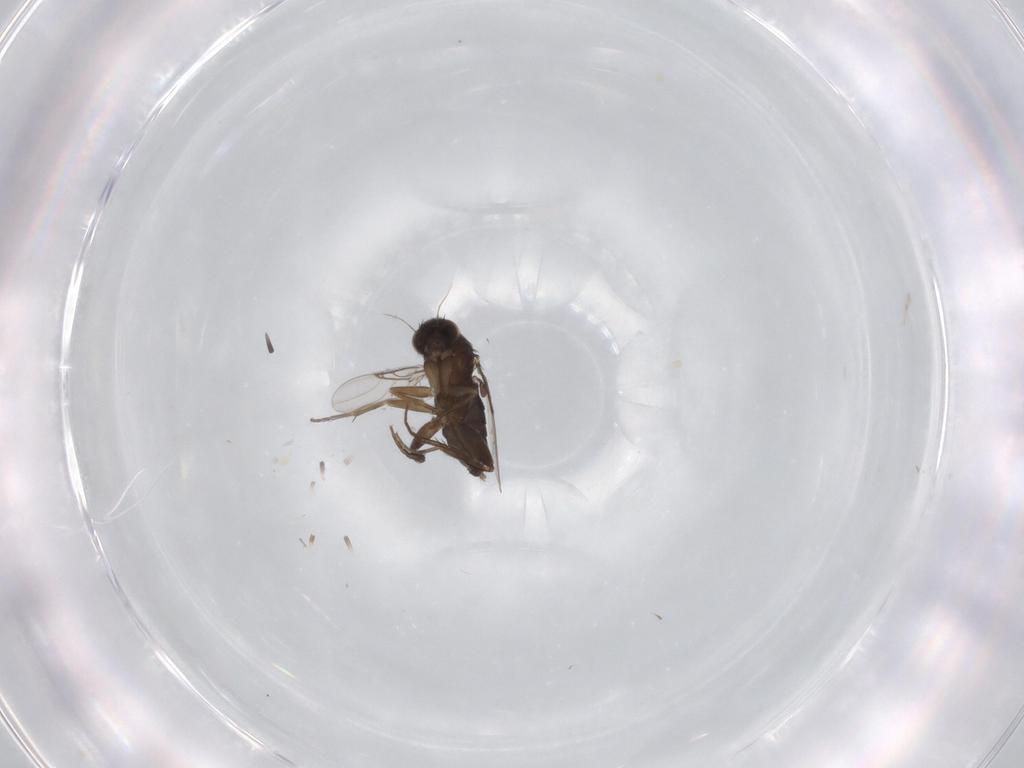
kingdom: Animalia
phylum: Arthropoda
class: Insecta
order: Diptera
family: Phoridae
